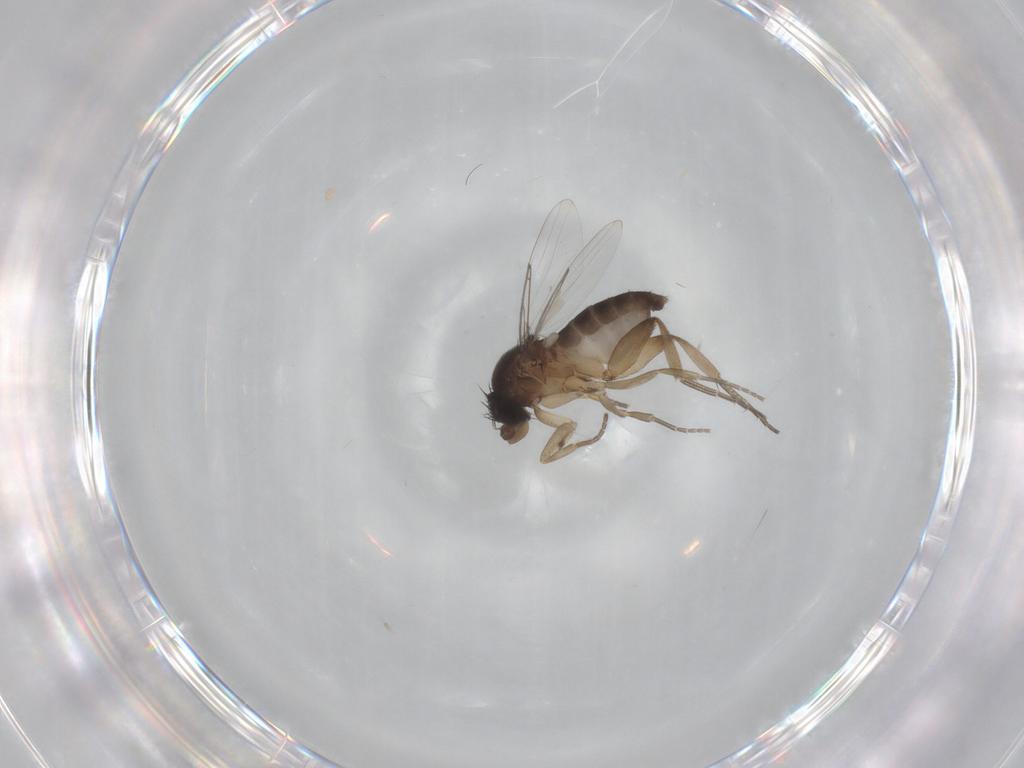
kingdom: Animalia
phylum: Arthropoda
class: Insecta
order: Diptera
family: Phoridae
